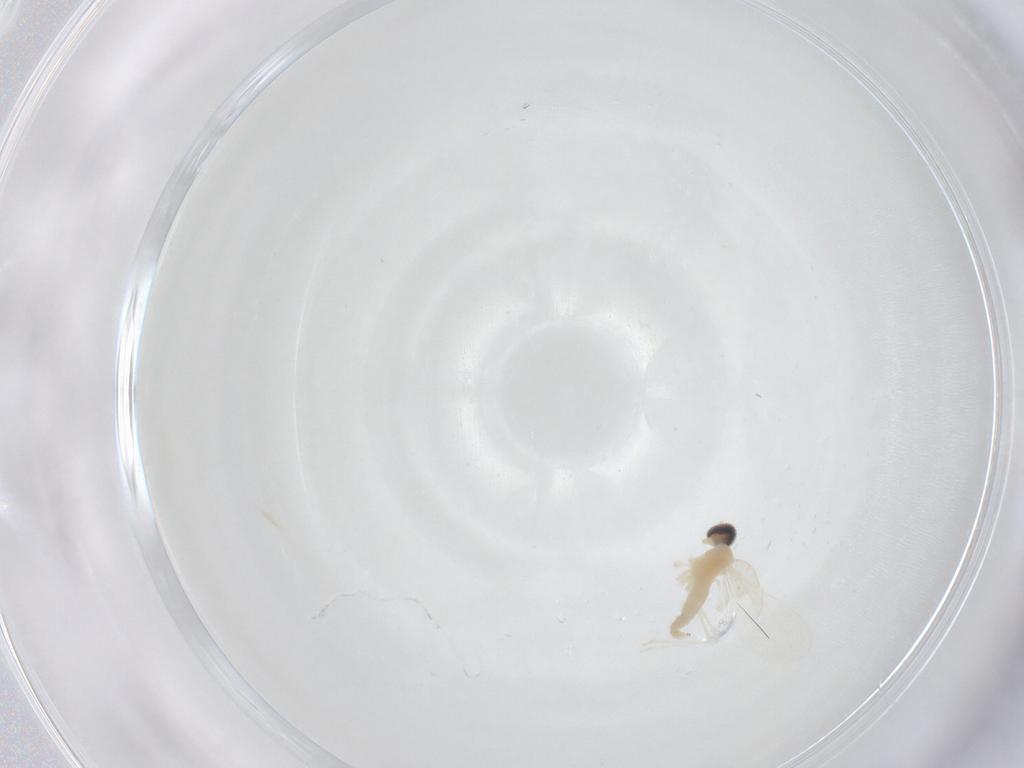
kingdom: Animalia
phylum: Arthropoda
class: Insecta
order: Diptera
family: Cecidomyiidae
